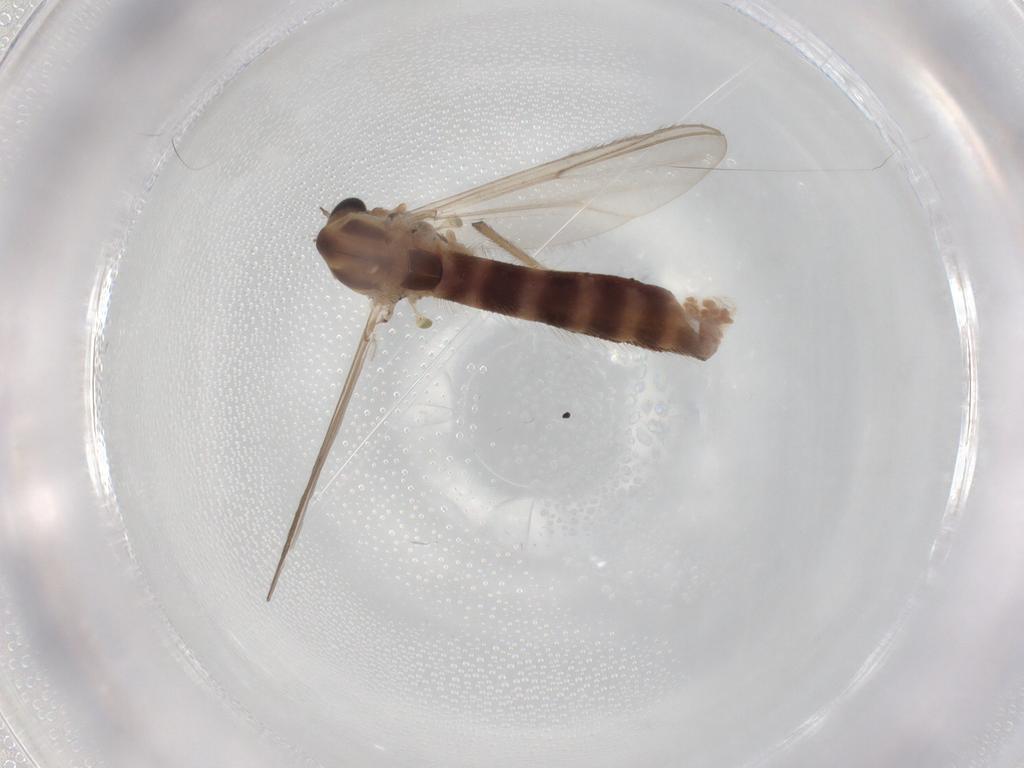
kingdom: Animalia
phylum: Arthropoda
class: Insecta
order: Diptera
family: Chironomidae
